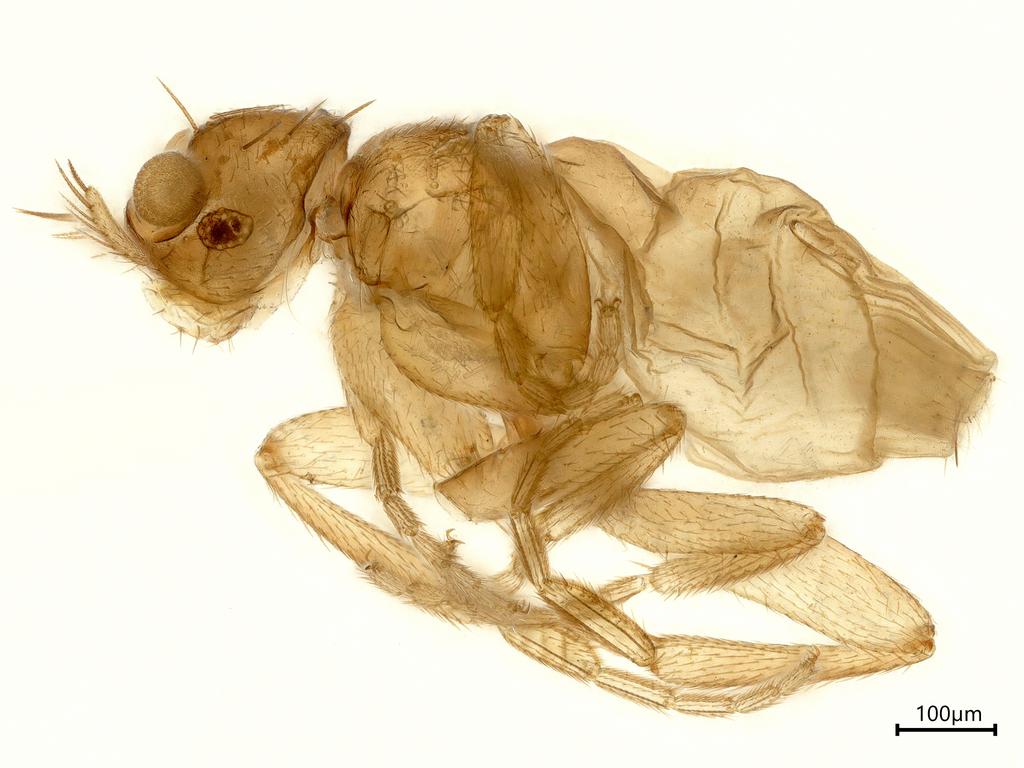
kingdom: Animalia
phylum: Arthropoda
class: Insecta
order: Diptera
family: Phoridae
